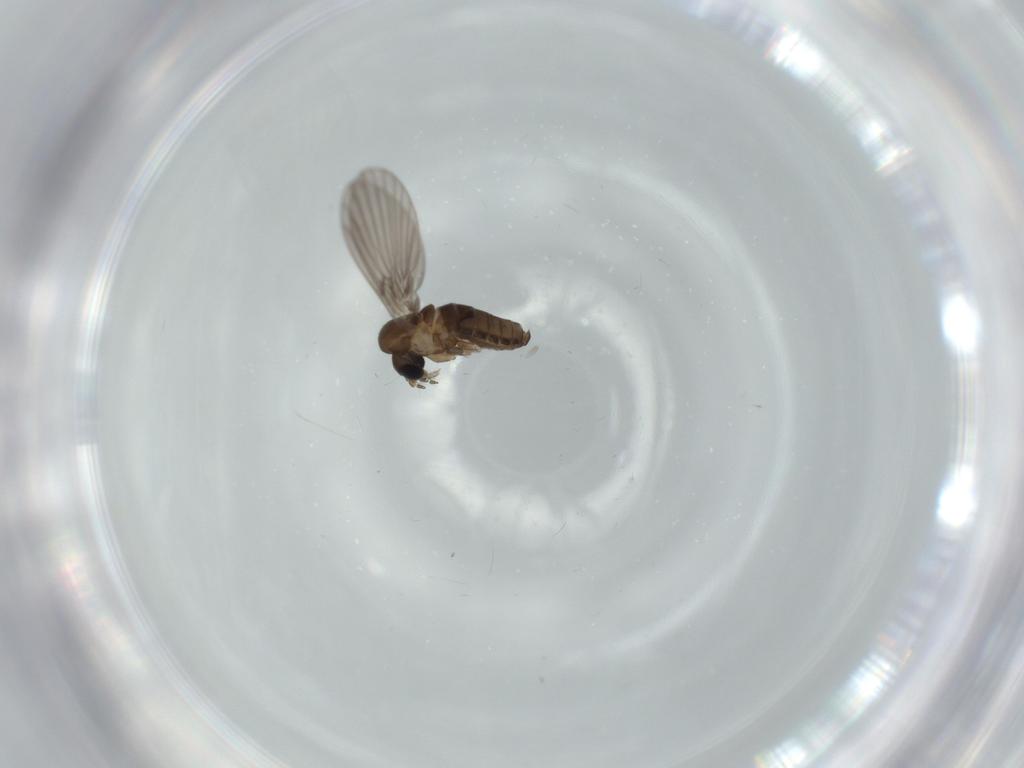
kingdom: Animalia
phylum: Arthropoda
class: Insecta
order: Diptera
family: Psychodidae
